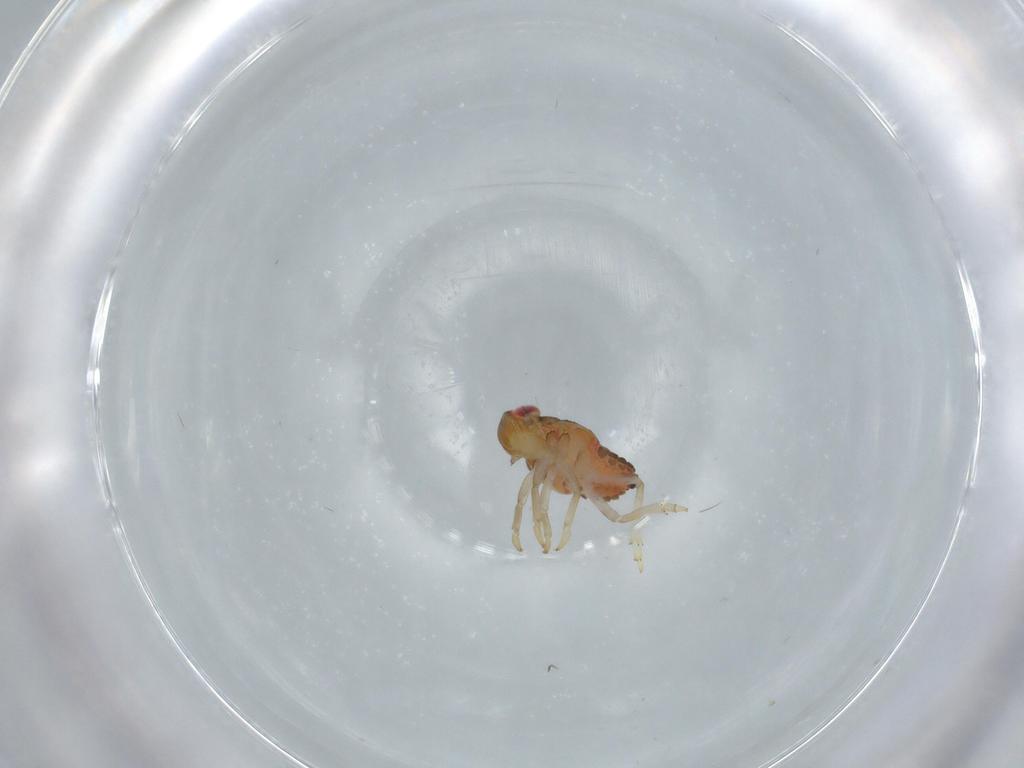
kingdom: Animalia
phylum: Arthropoda
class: Insecta
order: Hemiptera
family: Issidae
